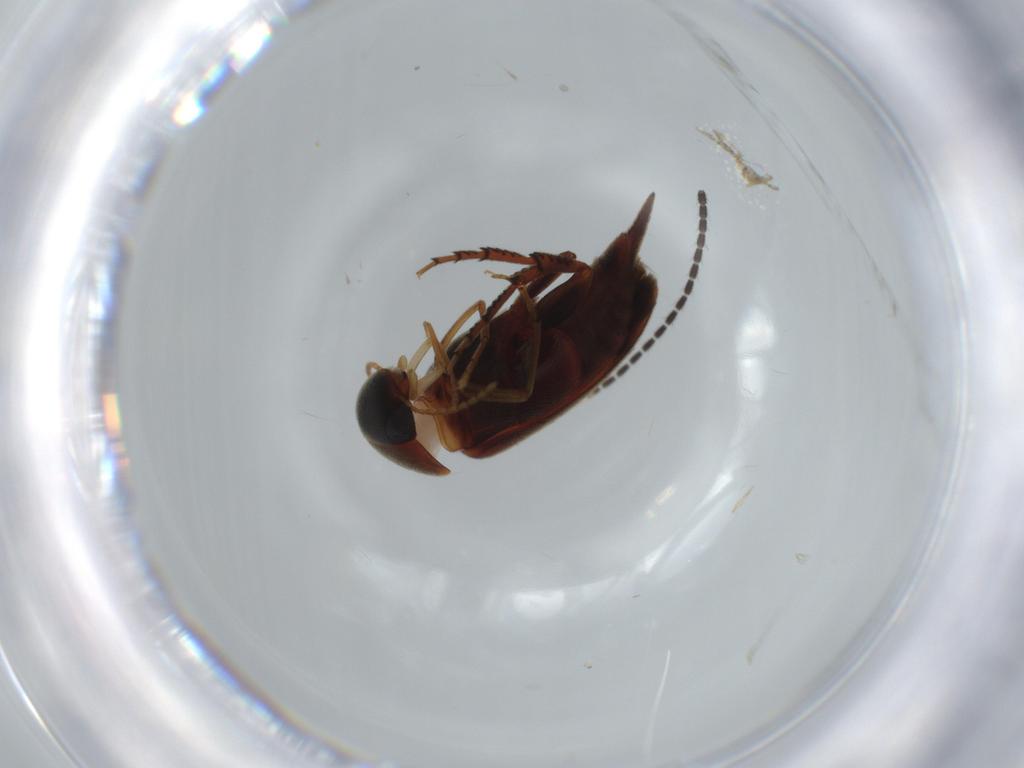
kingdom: Animalia
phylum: Arthropoda
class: Insecta
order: Coleoptera
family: Mordellidae
